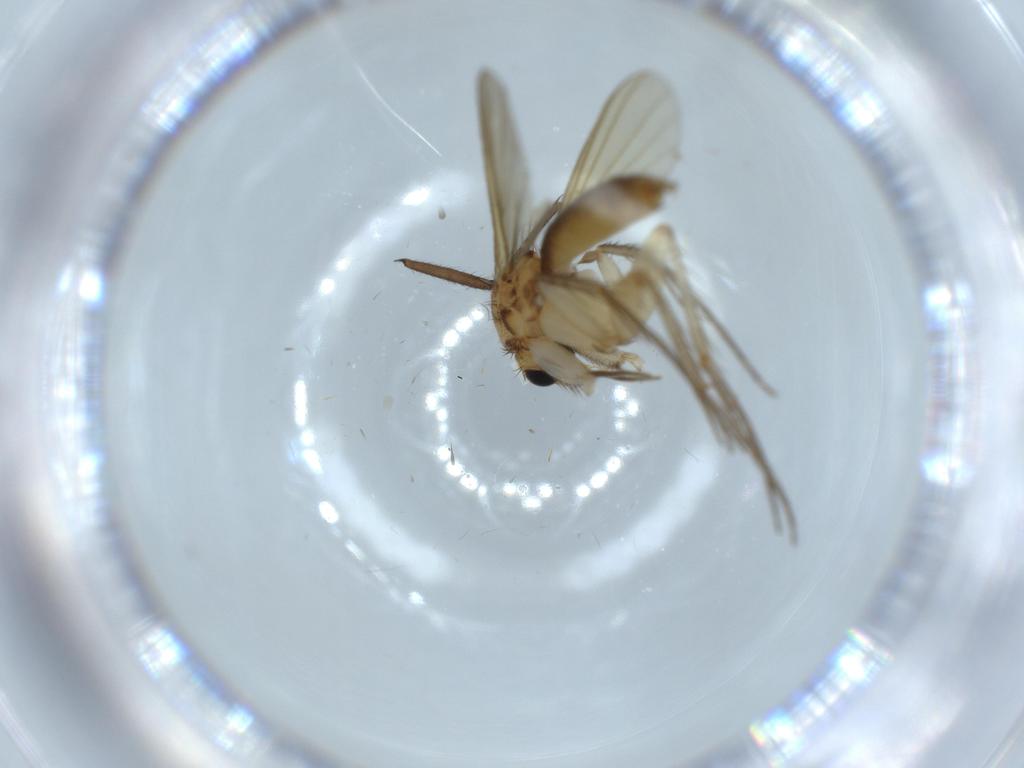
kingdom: Animalia
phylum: Arthropoda
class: Insecta
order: Diptera
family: Mycetophilidae
